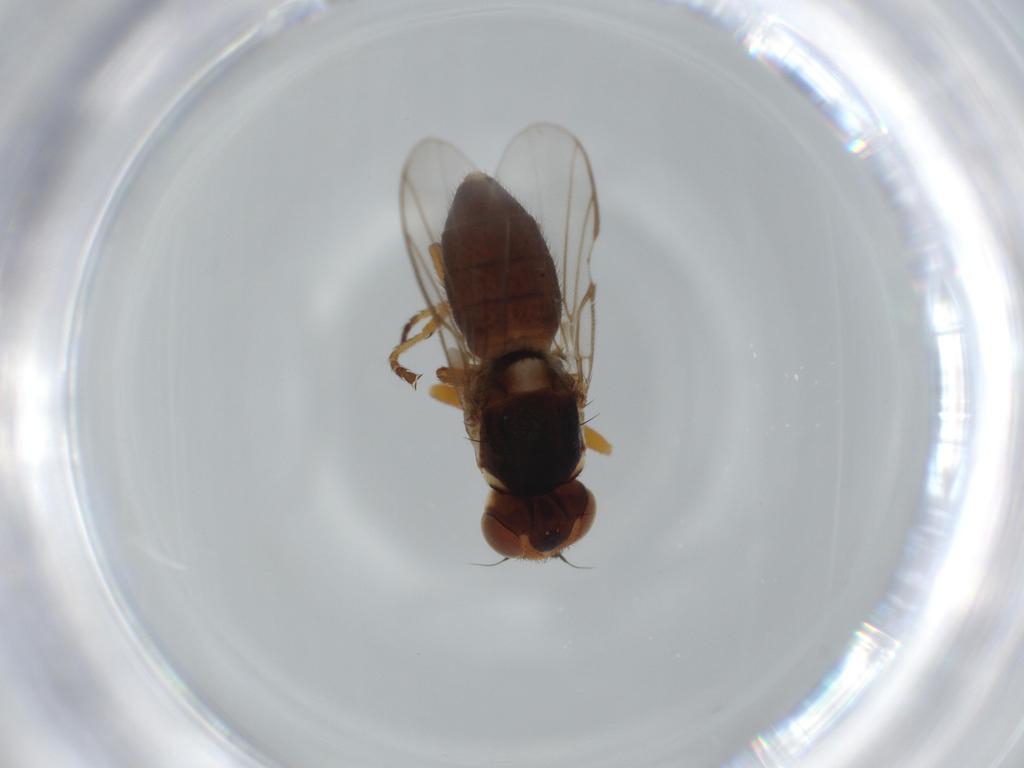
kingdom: Animalia
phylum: Arthropoda
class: Insecta
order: Diptera
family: Chloropidae
